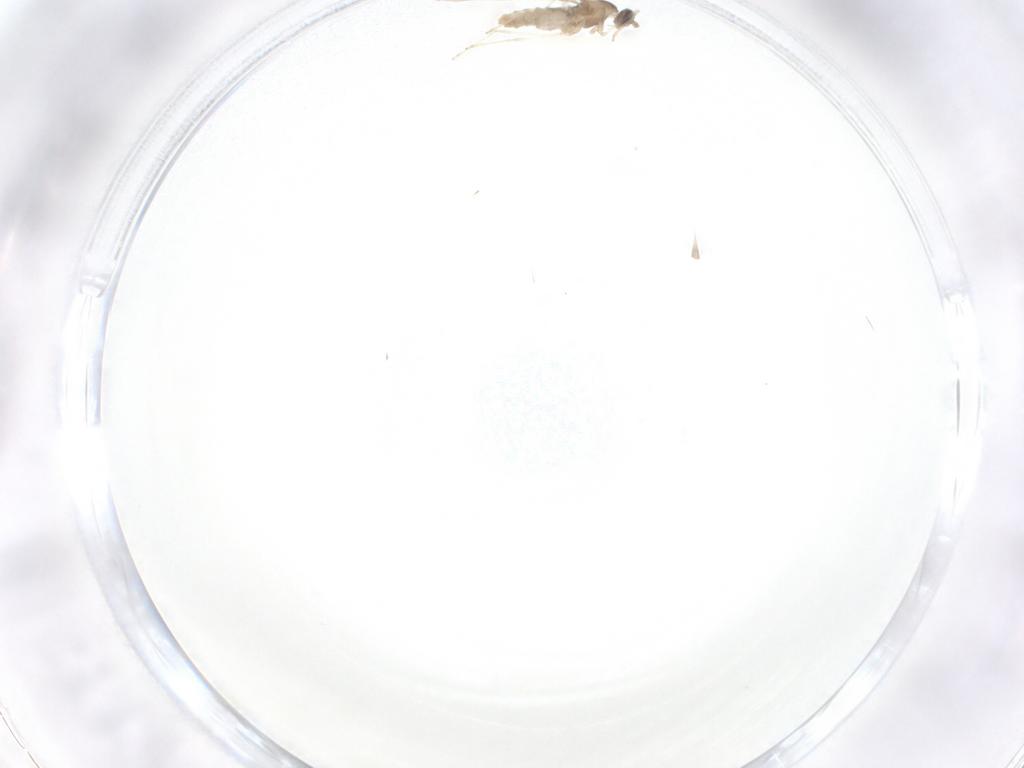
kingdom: Animalia
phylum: Arthropoda
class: Insecta
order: Diptera
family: Cecidomyiidae
